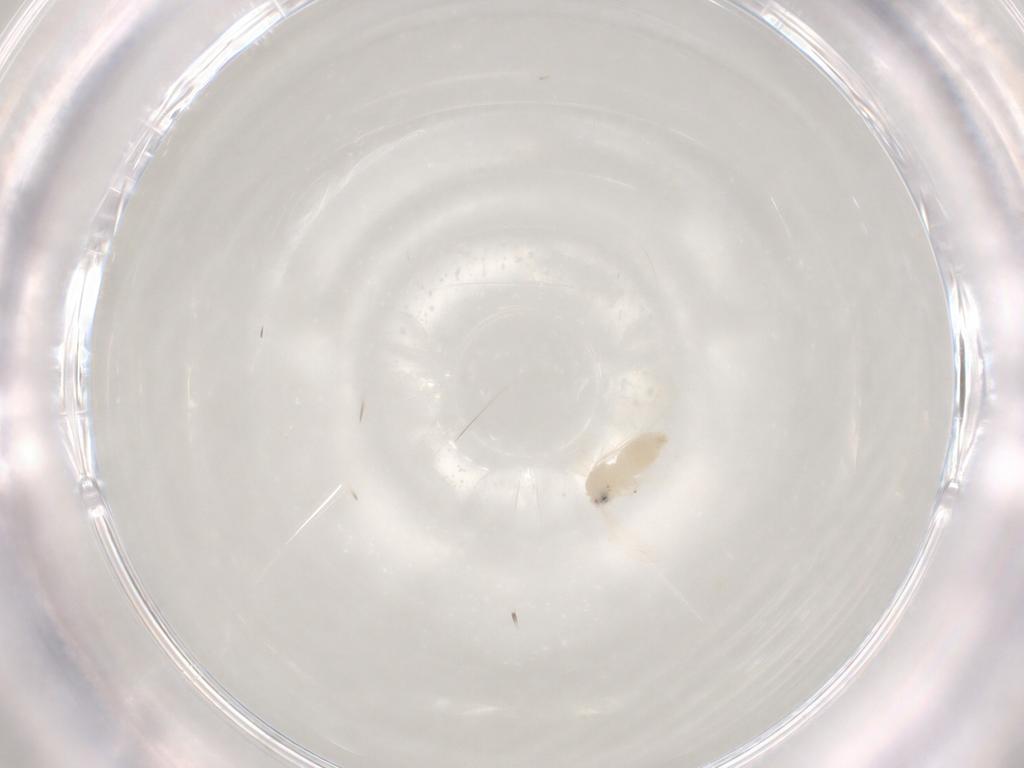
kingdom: Animalia
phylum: Arthropoda
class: Insecta
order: Hemiptera
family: Aleyrodidae
